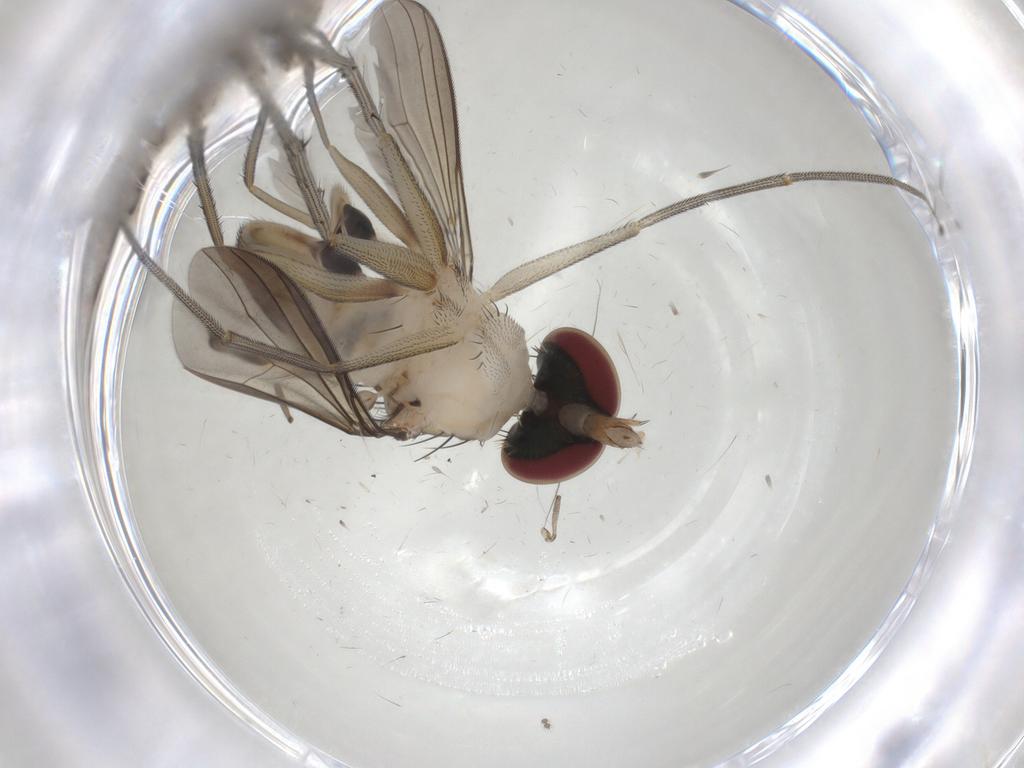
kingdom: Animalia
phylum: Arthropoda
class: Insecta
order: Diptera
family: Dolichopodidae
